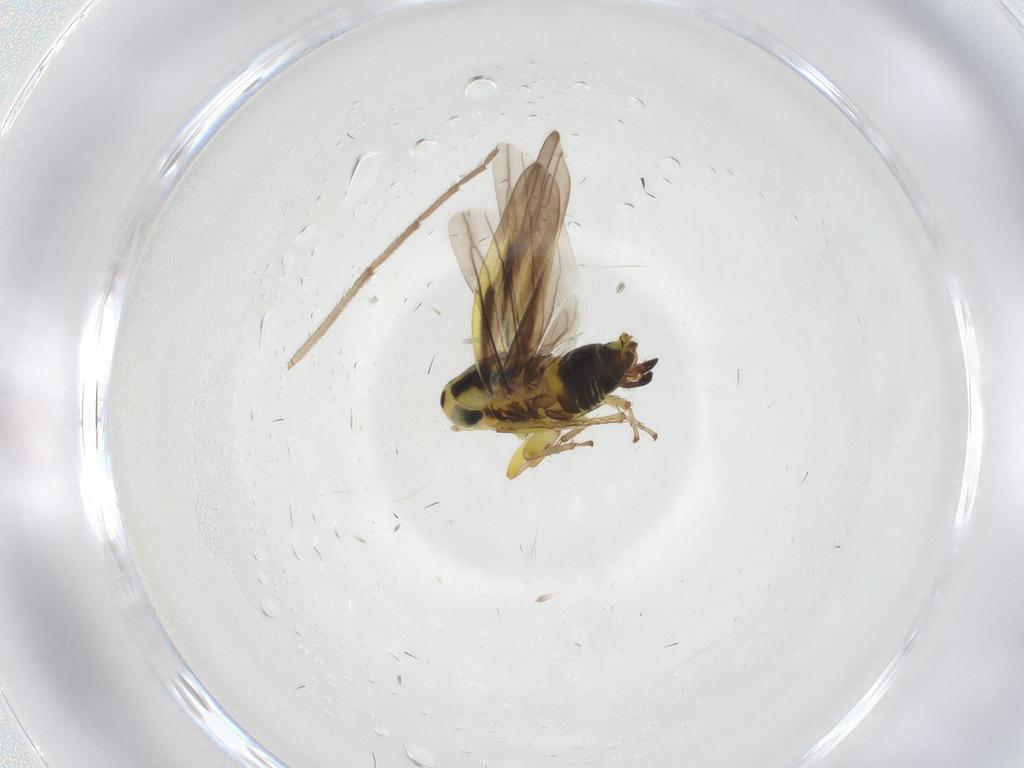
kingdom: Animalia
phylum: Arthropoda
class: Insecta
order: Hemiptera
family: Cicadellidae
